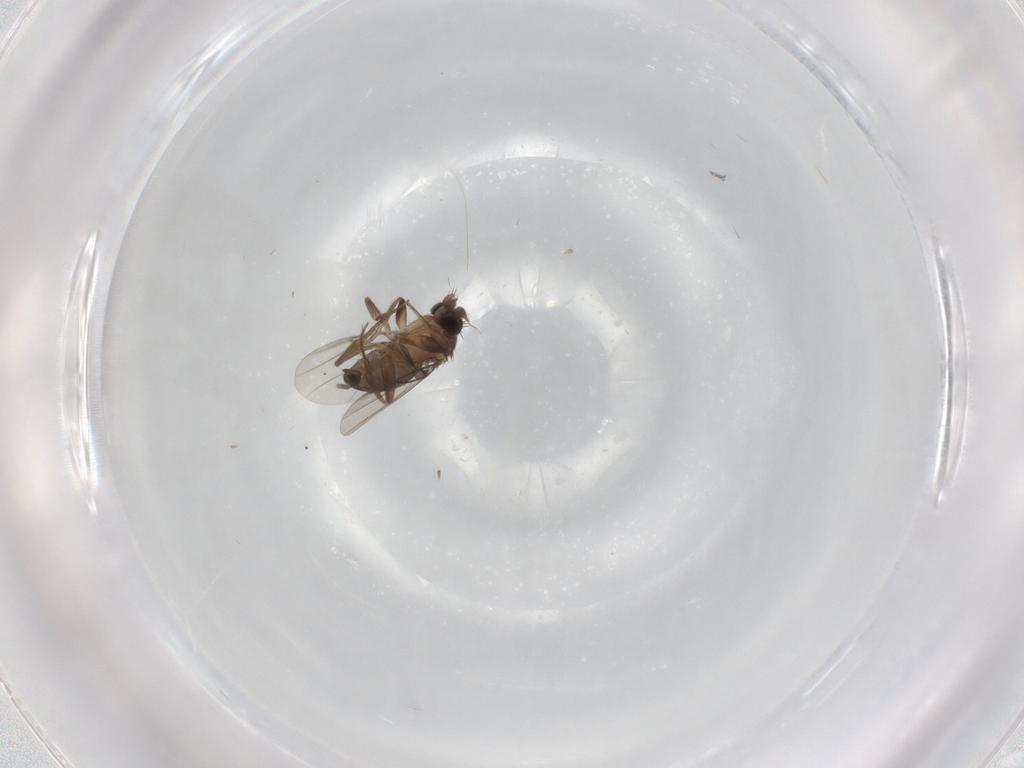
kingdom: Animalia
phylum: Arthropoda
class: Insecta
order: Diptera
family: Phoridae
